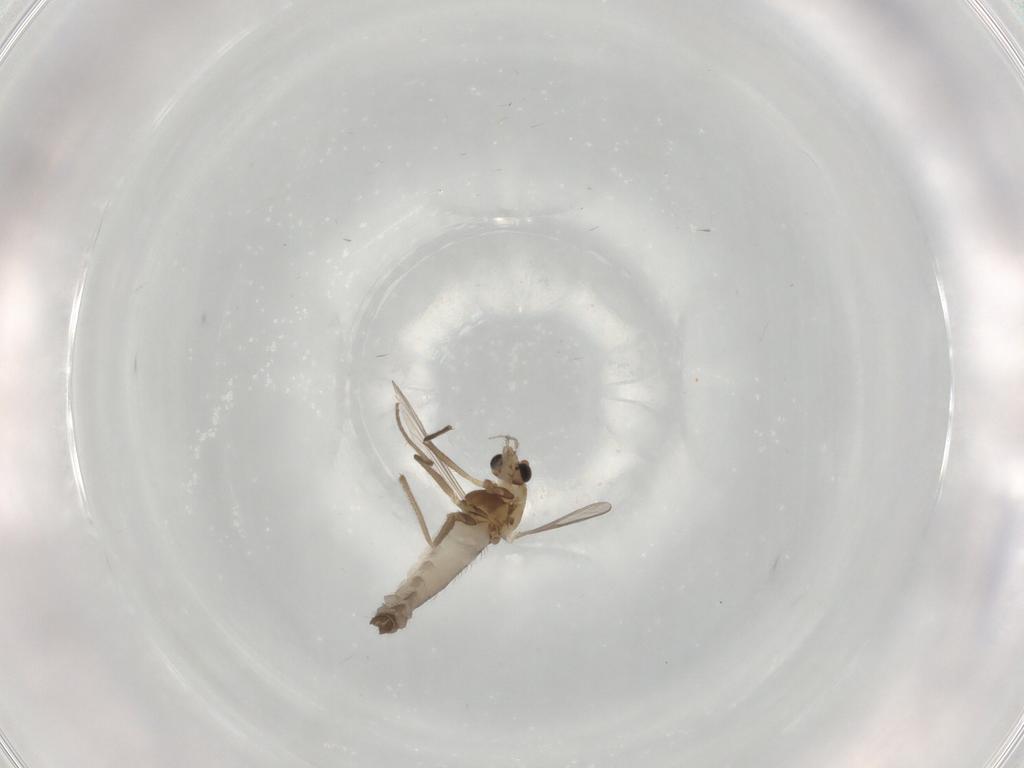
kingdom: Animalia
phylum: Arthropoda
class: Insecta
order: Diptera
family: Chironomidae
